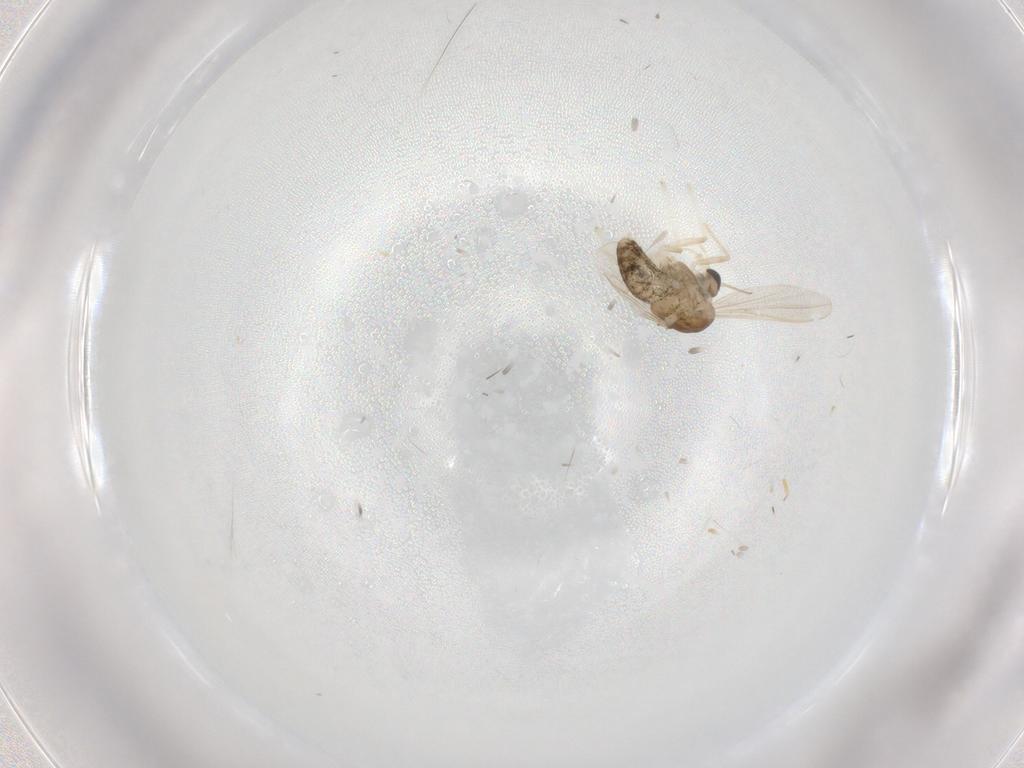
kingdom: Animalia
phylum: Arthropoda
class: Insecta
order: Diptera
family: Chironomidae
